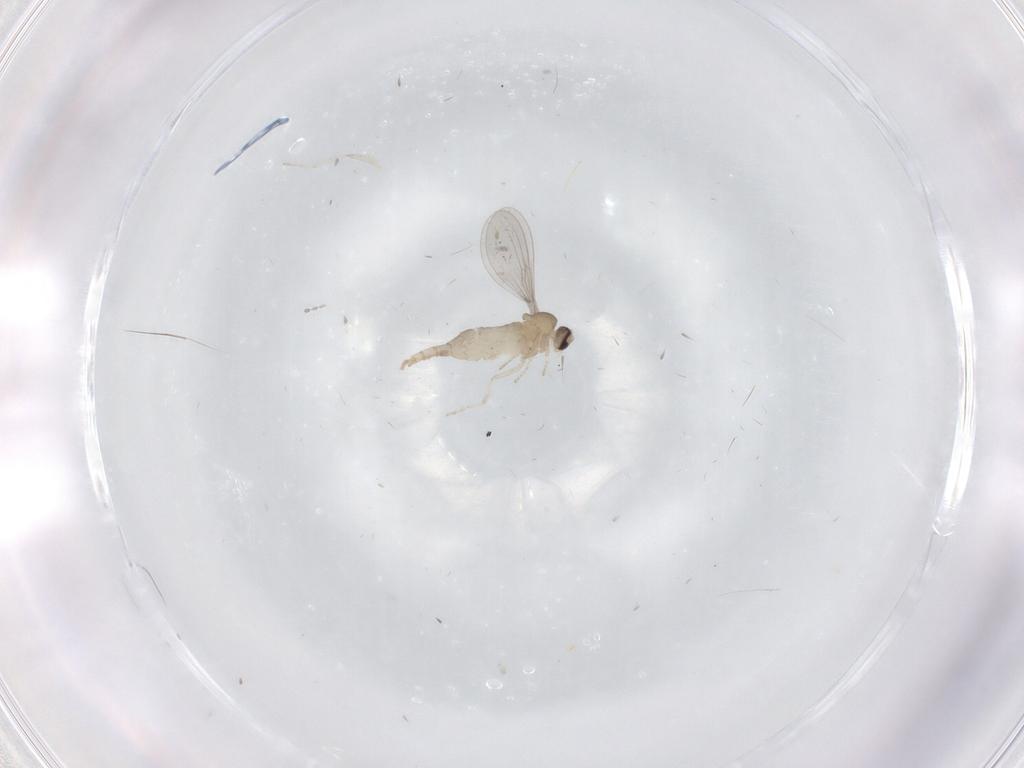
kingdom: Animalia
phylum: Arthropoda
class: Insecta
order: Diptera
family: Cecidomyiidae
